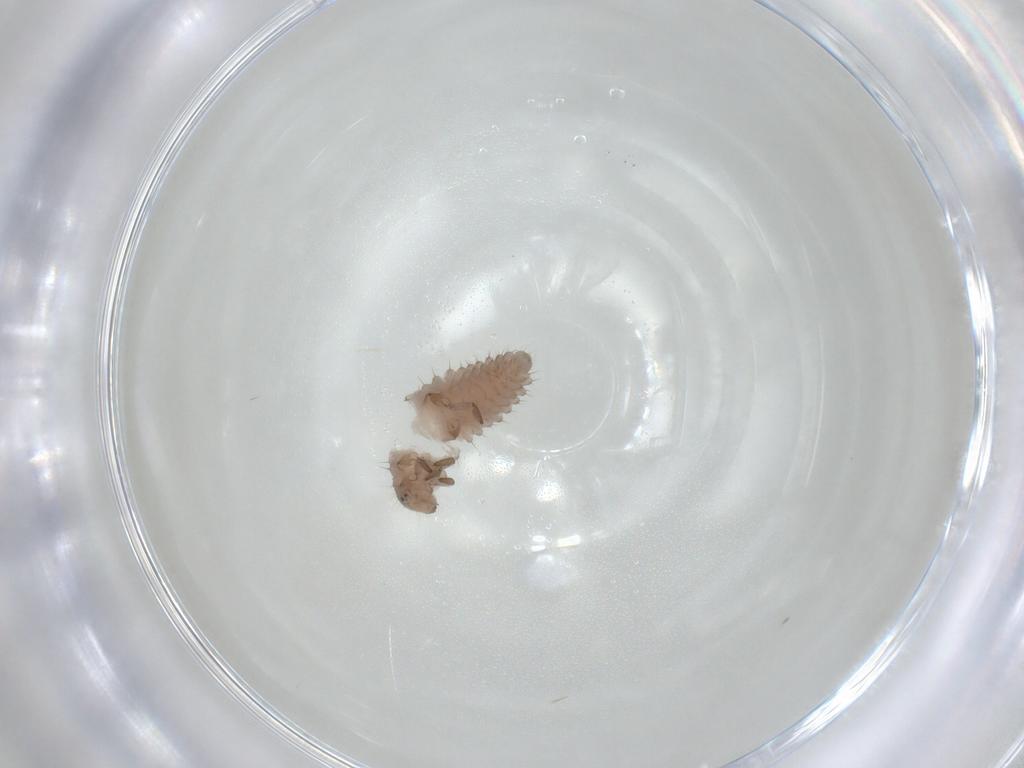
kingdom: Animalia
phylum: Arthropoda
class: Insecta
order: Coleoptera
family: Coccinellidae
